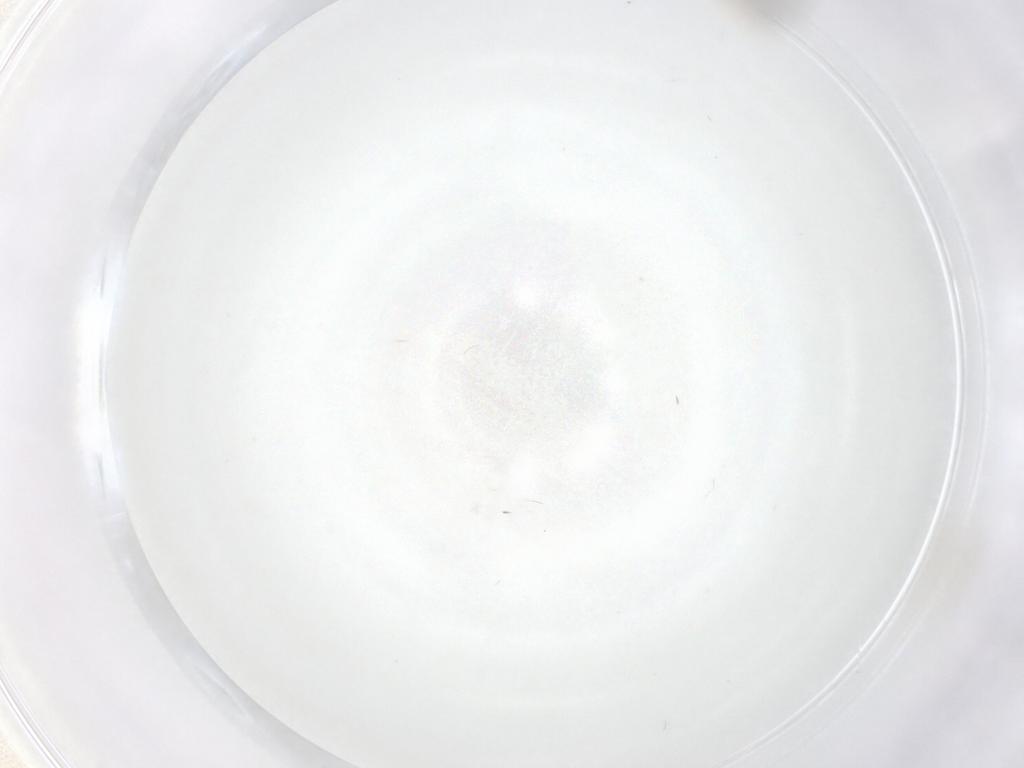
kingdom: Animalia
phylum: Arthropoda
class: Insecta
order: Diptera
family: Cecidomyiidae
